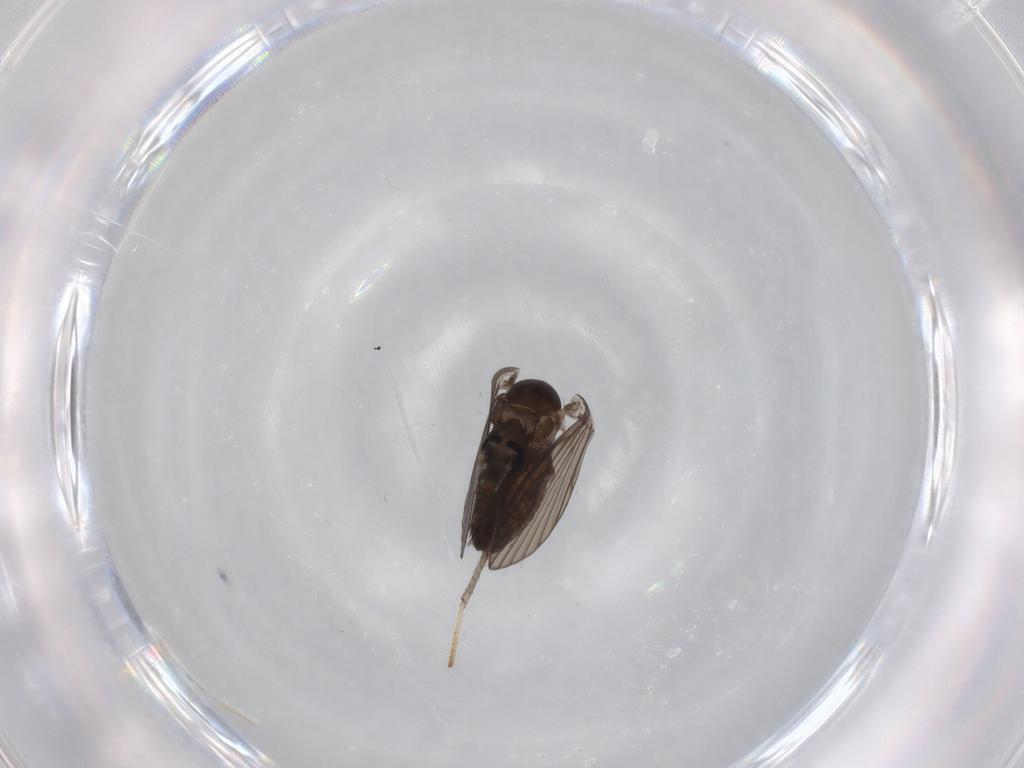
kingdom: Animalia
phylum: Arthropoda
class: Insecta
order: Diptera
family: Psychodidae
